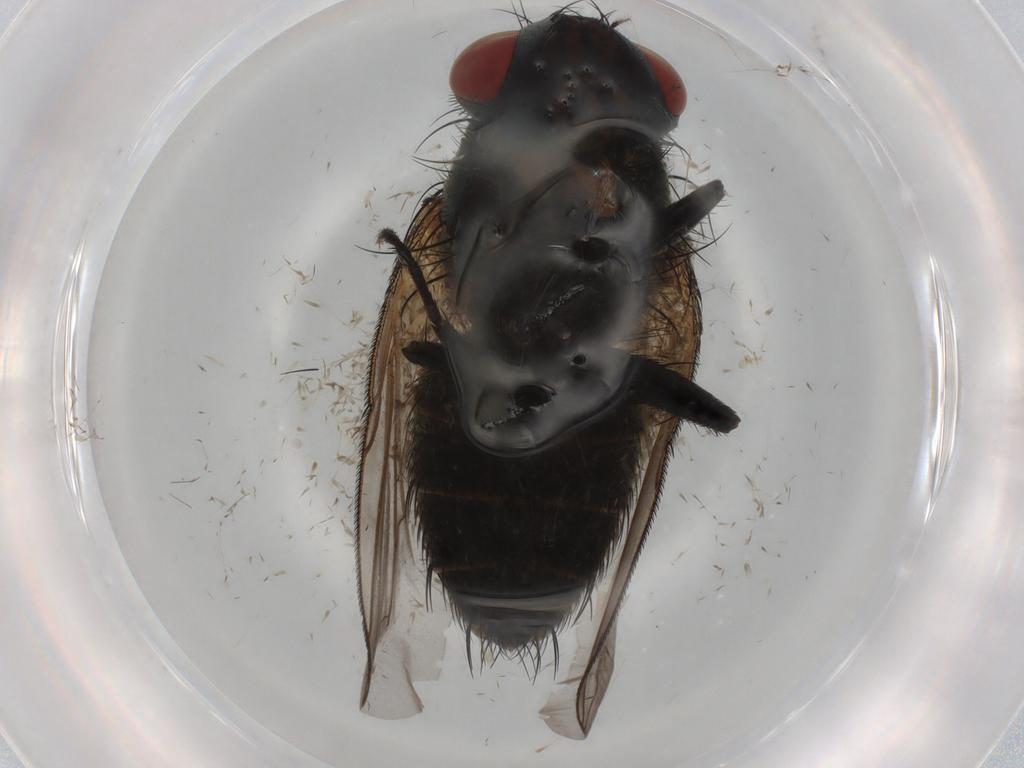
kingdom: Animalia
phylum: Arthropoda
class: Insecta
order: Diptera
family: Sarcophagidae
